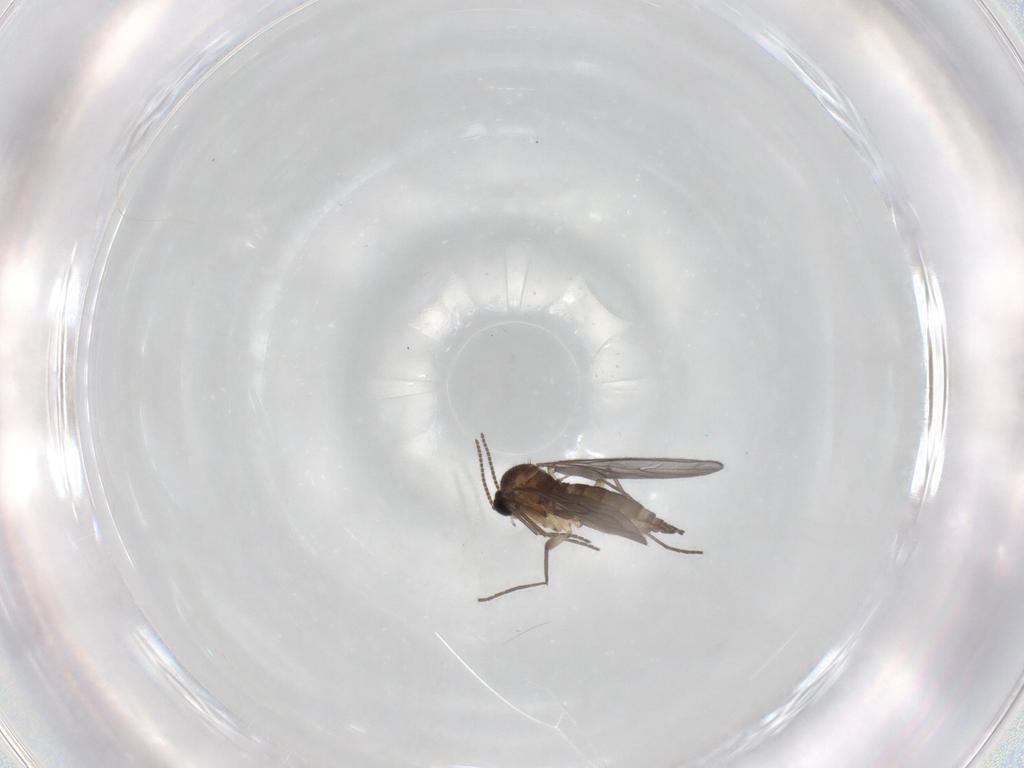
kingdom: Animalia
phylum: Arthropoda
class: Insecta
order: Diptera
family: Sciaridae
